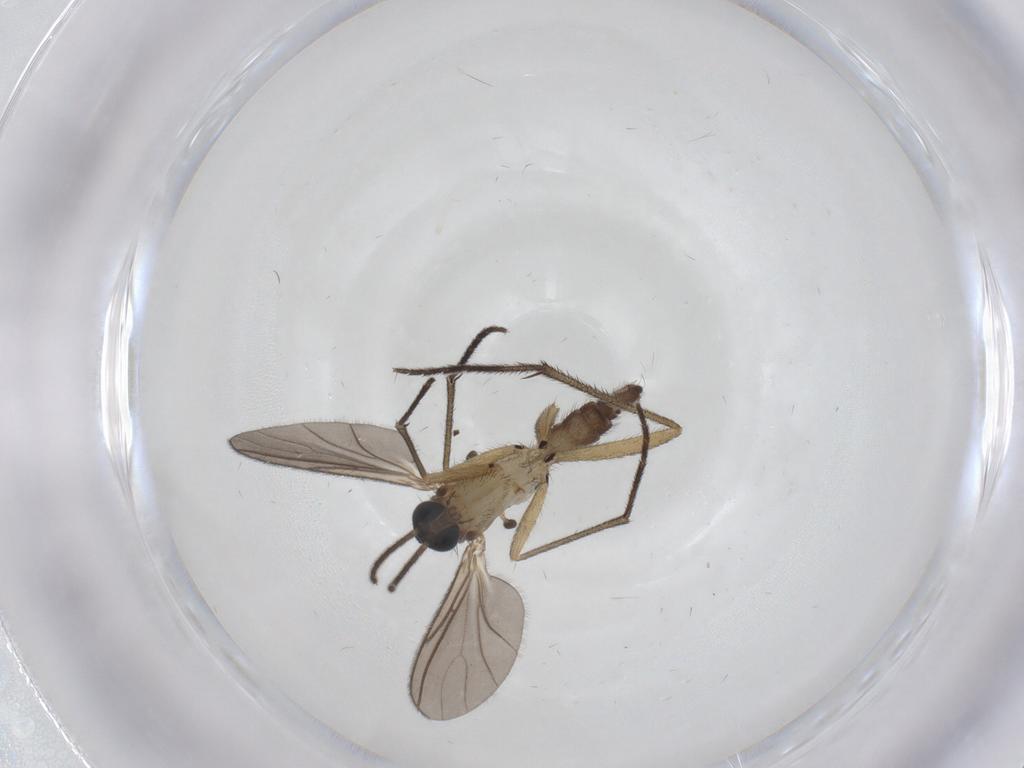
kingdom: Animalia
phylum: Arthropoda
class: Insecta
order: Diptera
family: Sciaridae
